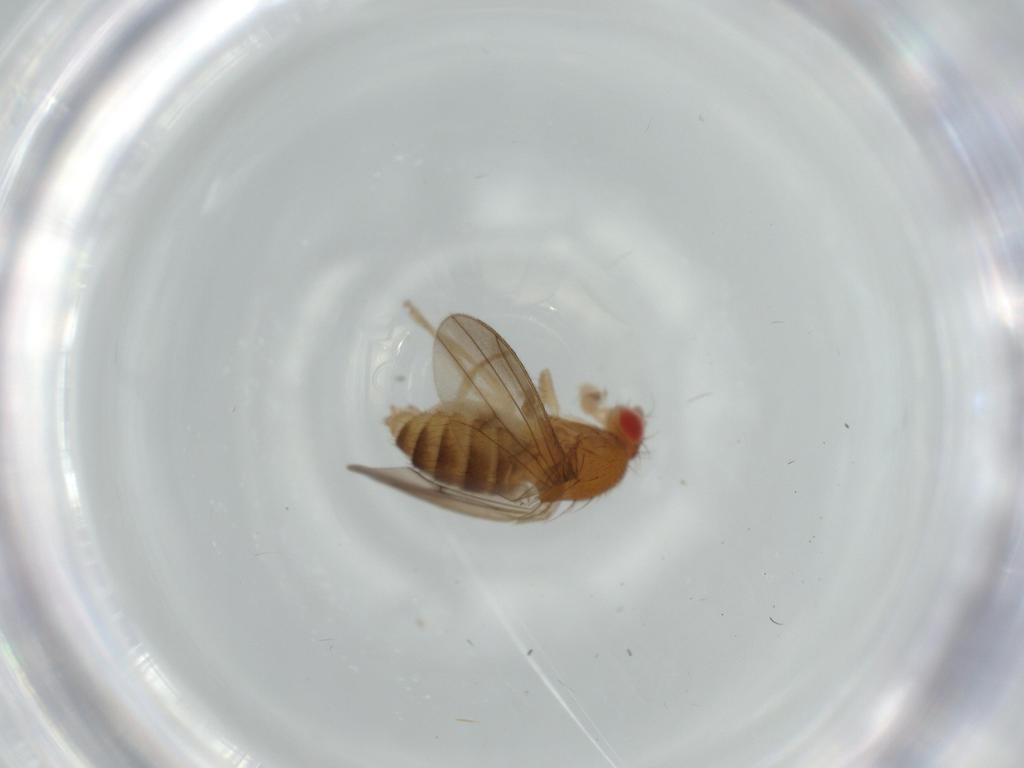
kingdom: Animalia
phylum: Arthropoda
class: Insecta
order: Diptera
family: Drosophilidae
